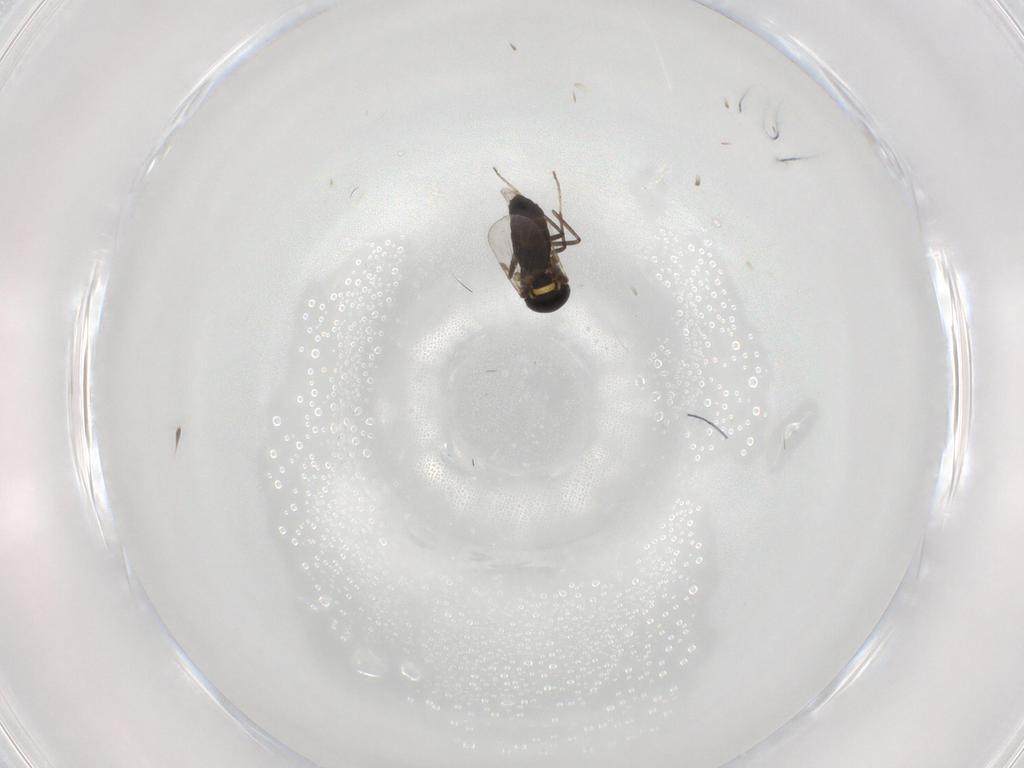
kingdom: Animalia
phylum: Arthropoda
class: Insecta
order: Diptera
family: Ceratopogonidae
